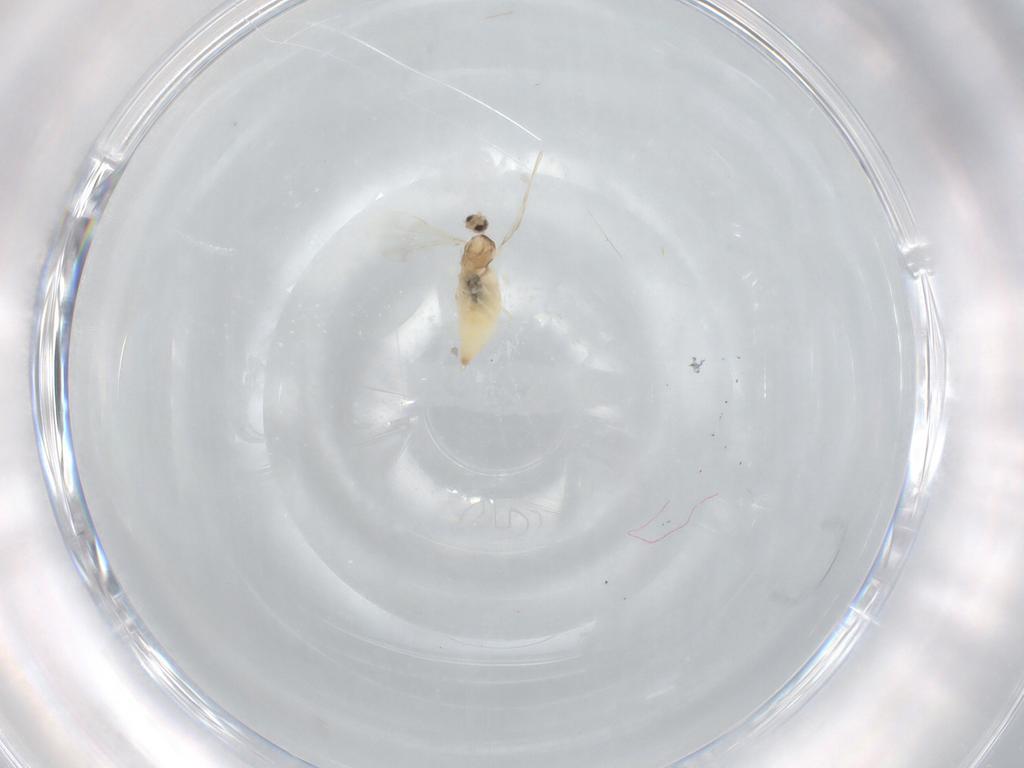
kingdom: Animalia
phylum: Arthropoda
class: Insecta
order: Diptera
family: Cecidomyiidae
